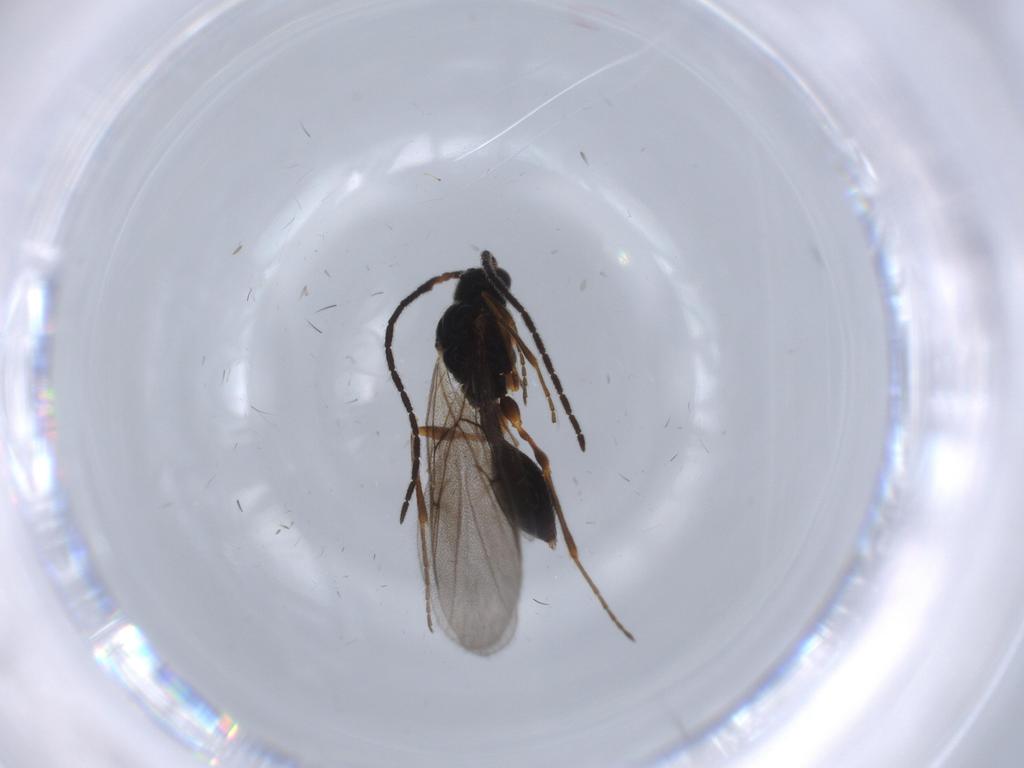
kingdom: Animalia
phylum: Arthropoda
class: Insecta
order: Hymenoptera
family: Diapriidae
